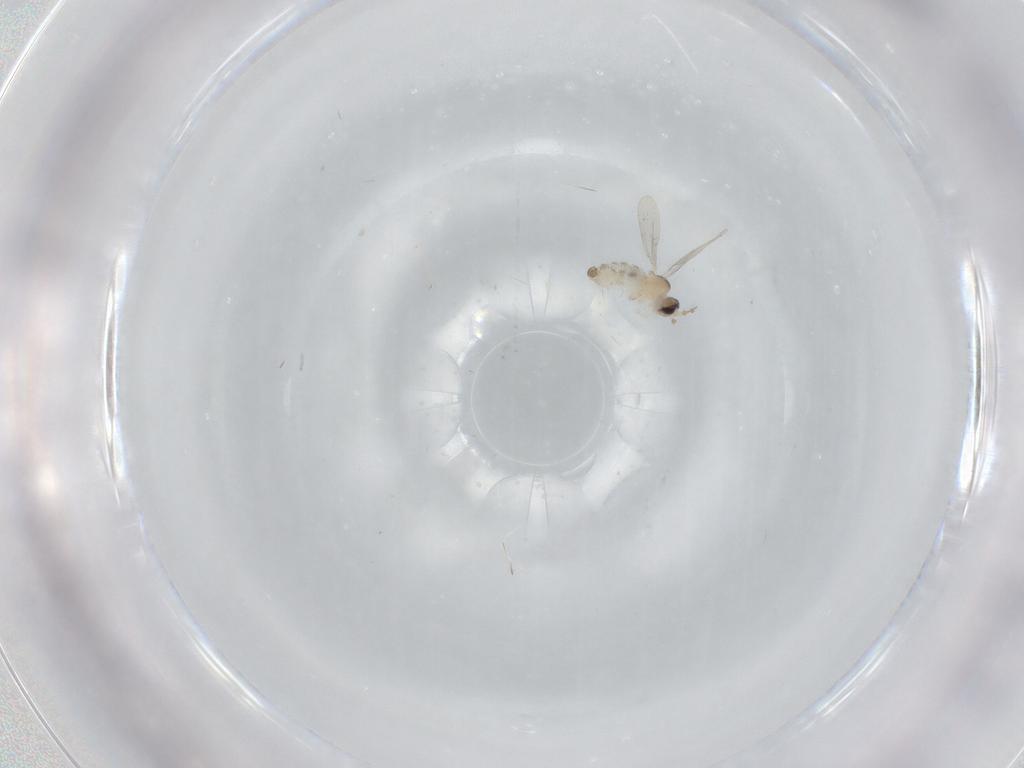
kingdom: Animalia
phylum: Arthropoda
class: Insecta
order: Diptera
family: Cecidomyiidae
